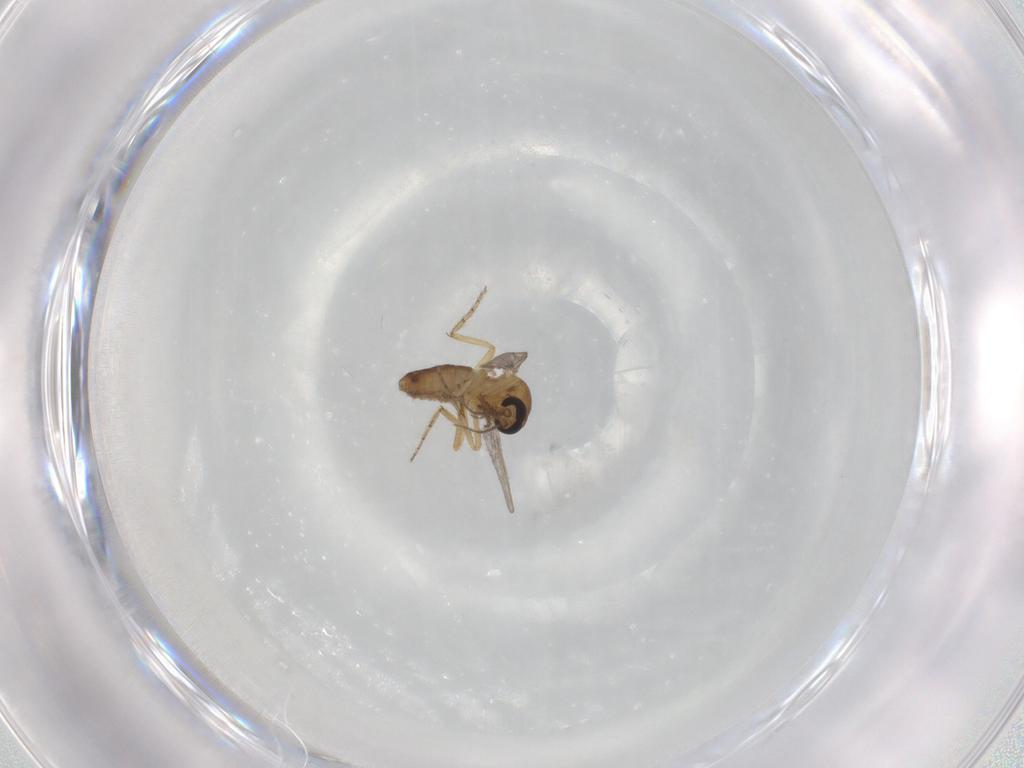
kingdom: Animalia
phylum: Arthropoda
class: Insecta
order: Diptera
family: Ceratopogonidae
